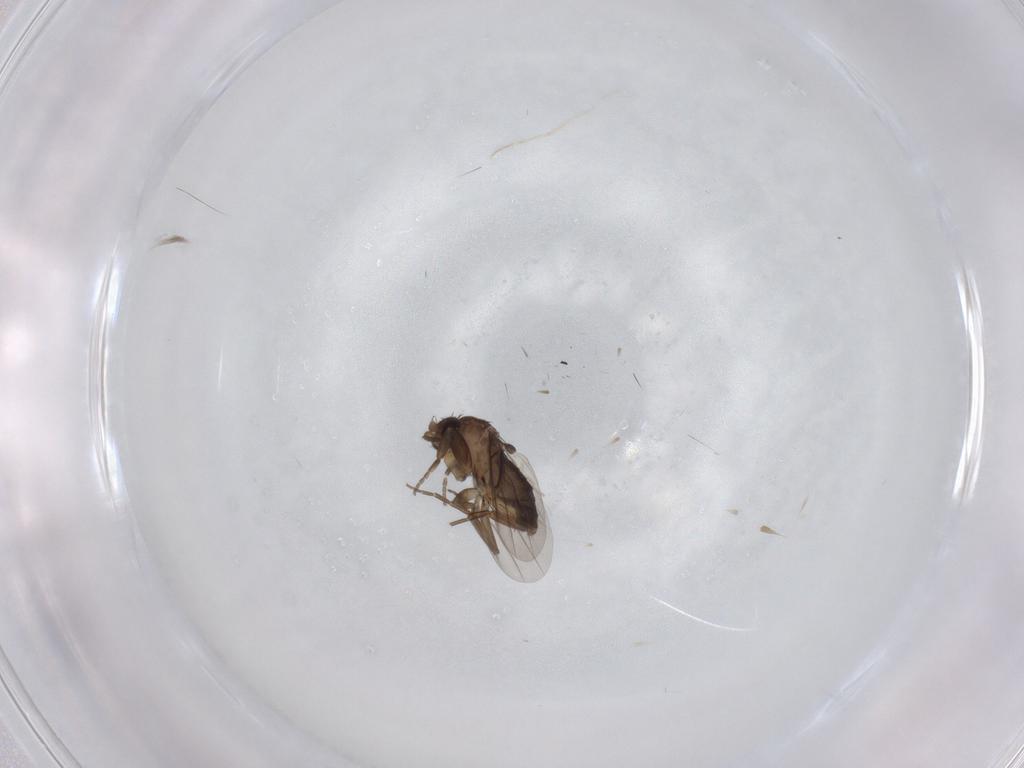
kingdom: Animalia
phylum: Arthropoda
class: Insecta
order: Diptera
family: Phoridae
